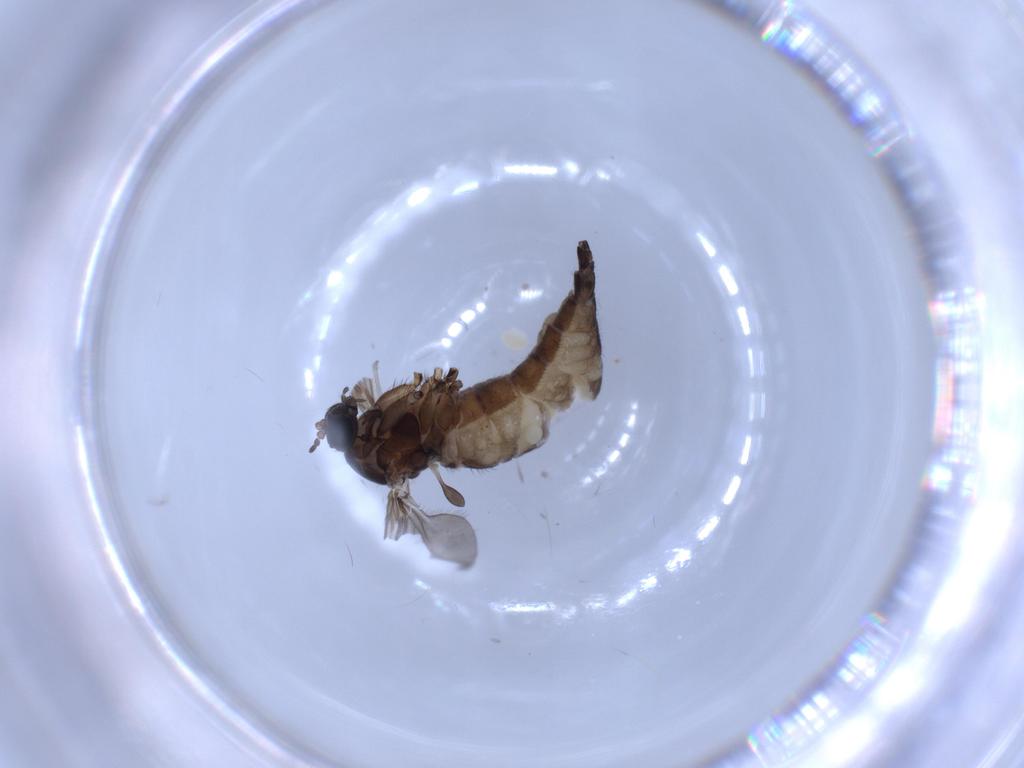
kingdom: Animalia
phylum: Arthropoda
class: Insecta
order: Diptera
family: Sciaridae
